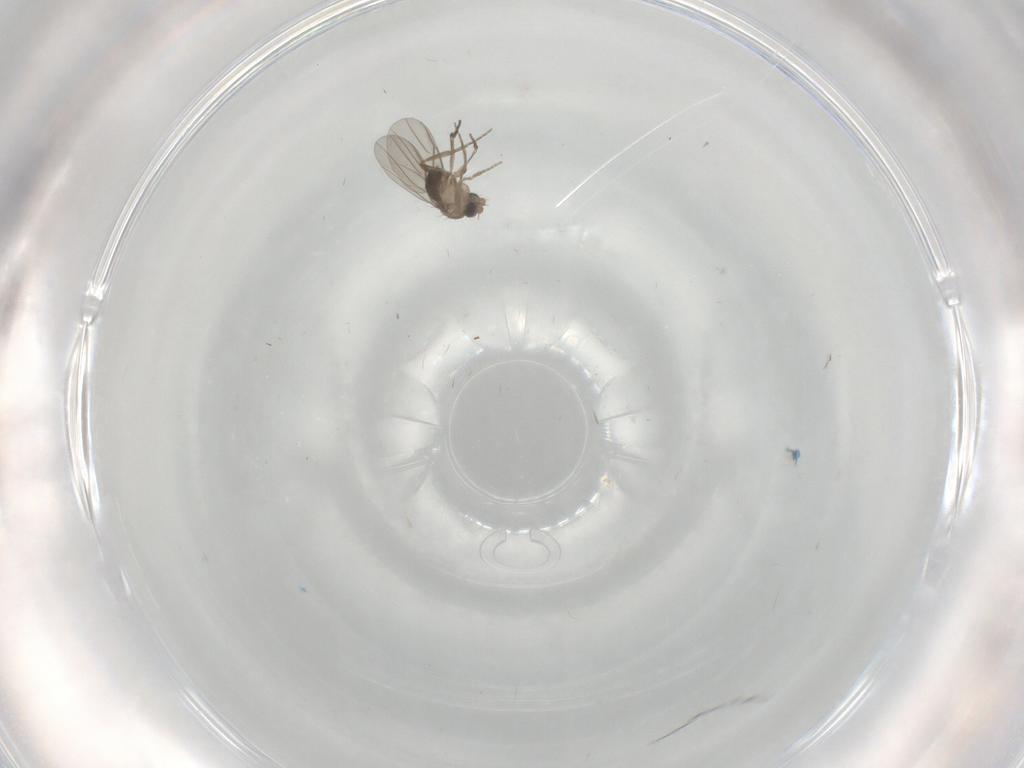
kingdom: Animalia
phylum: Arthropoda
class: Insecta
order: Diptera
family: Phoridae
